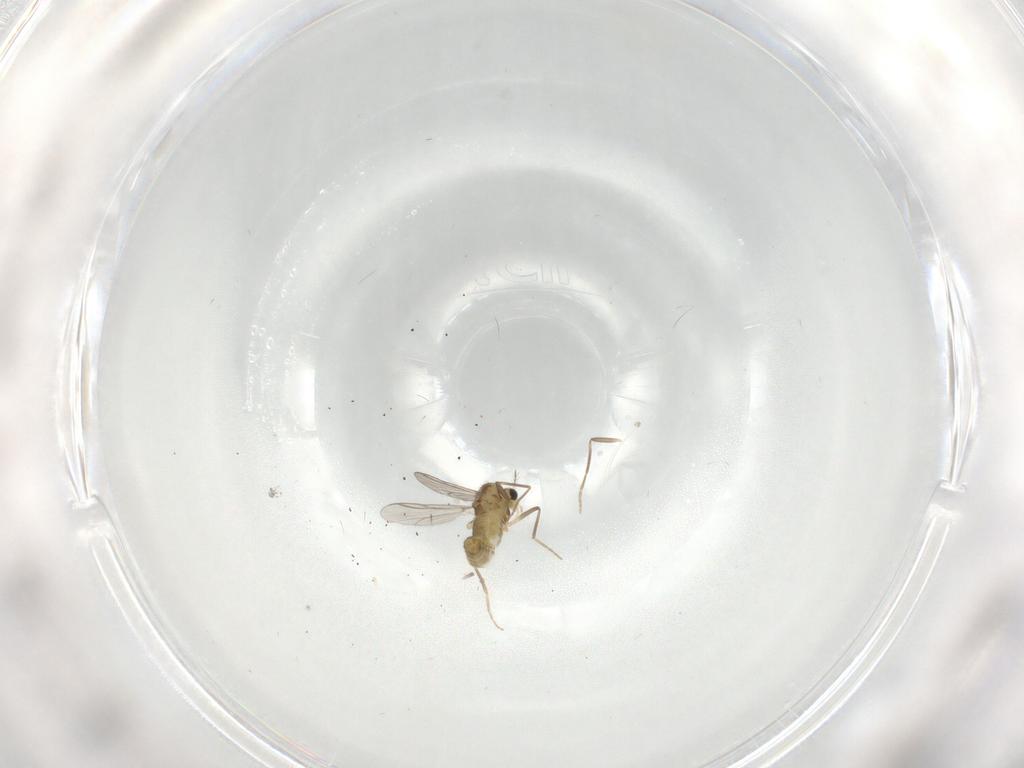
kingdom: Animalia
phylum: Arthropoda
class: Insecta
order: Diptera
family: Chironomidae
